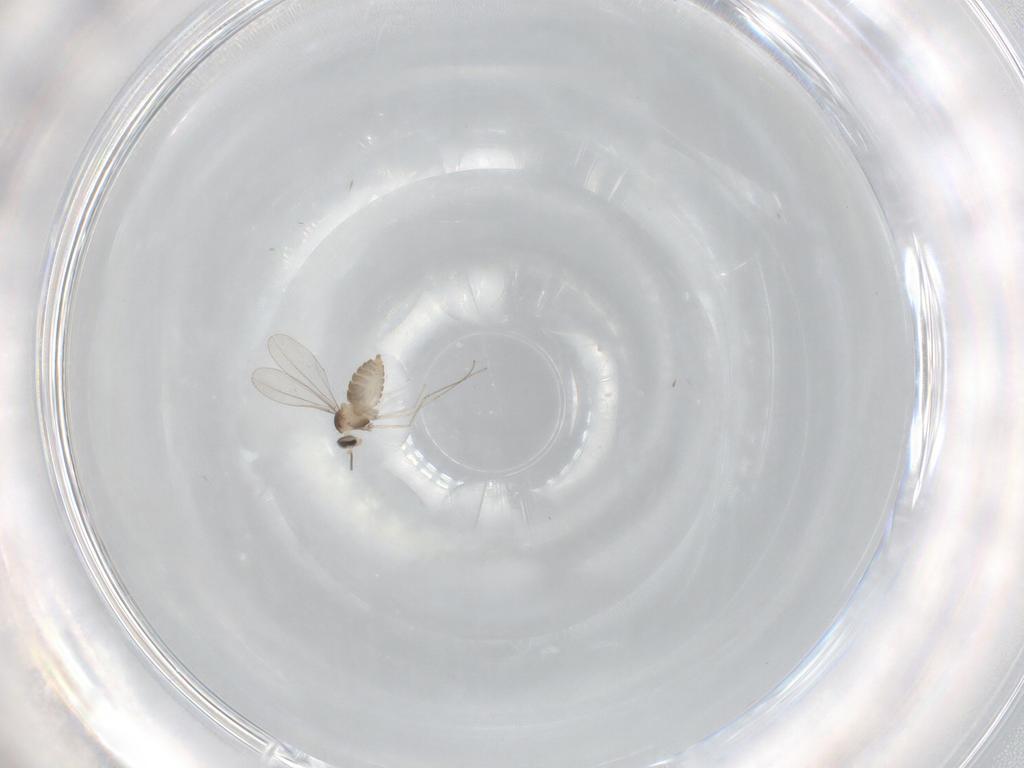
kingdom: Animalia
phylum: Arthropoda
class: Insecta
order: Diptera
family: Cecidomyiidae
